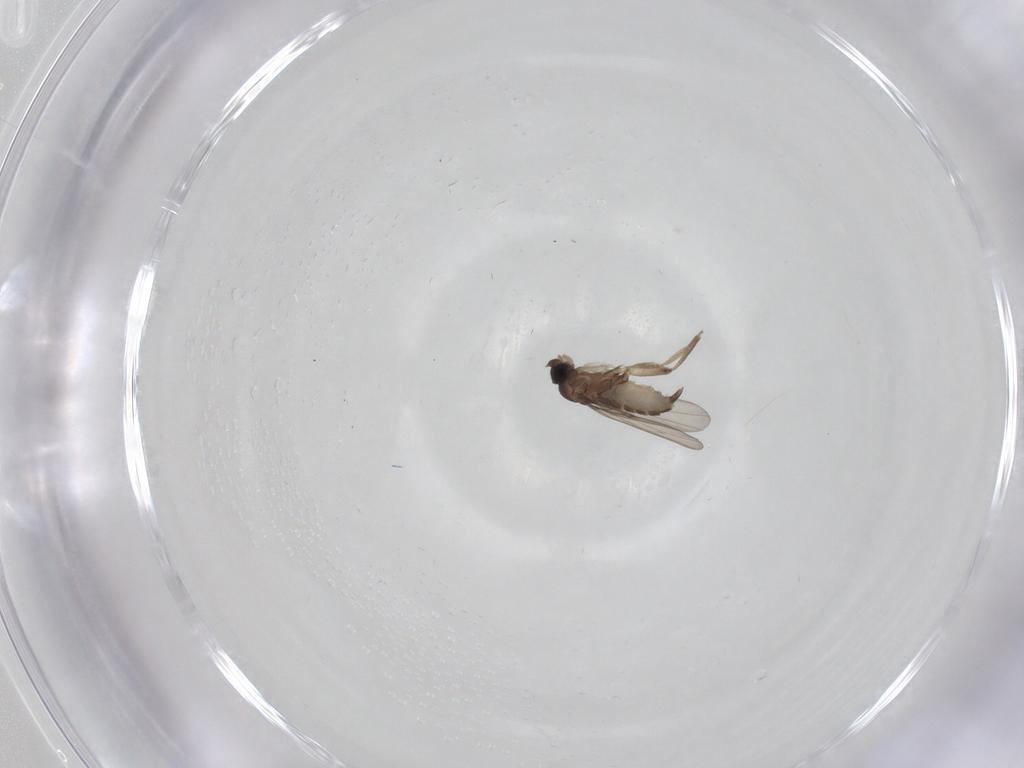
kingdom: Animalia
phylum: Arthropoda
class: Insecta
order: Diptera
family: Phoridae
